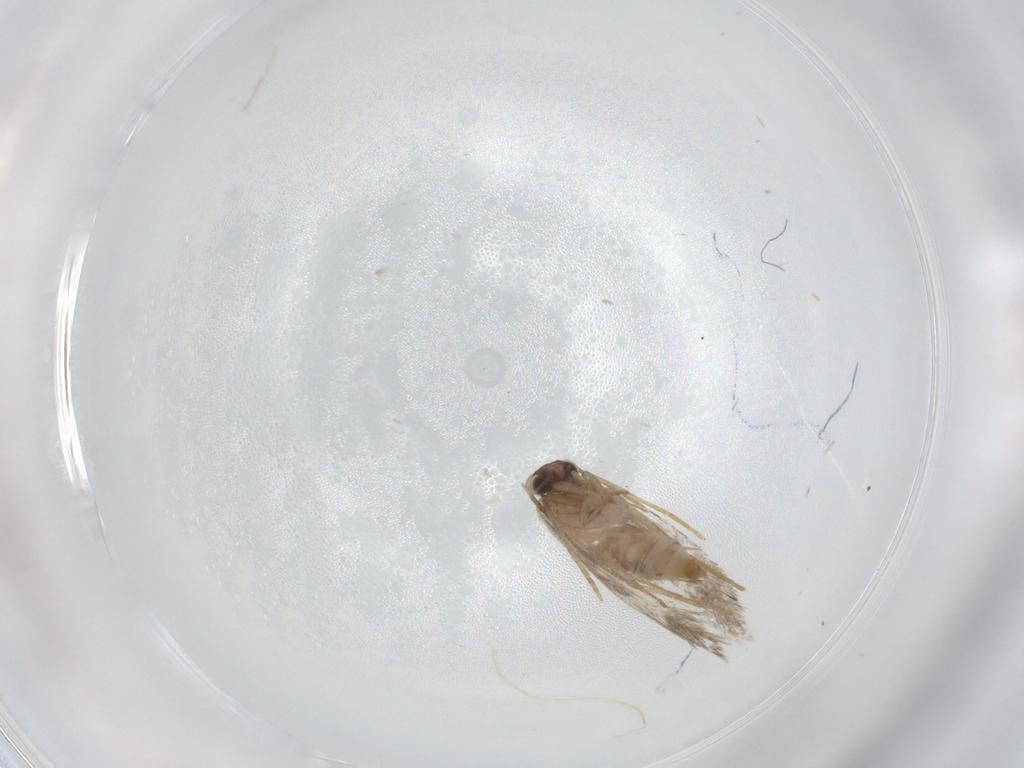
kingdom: Animalia
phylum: Arthropoda
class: Insecta
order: Lepidoptera
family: Tineidae
